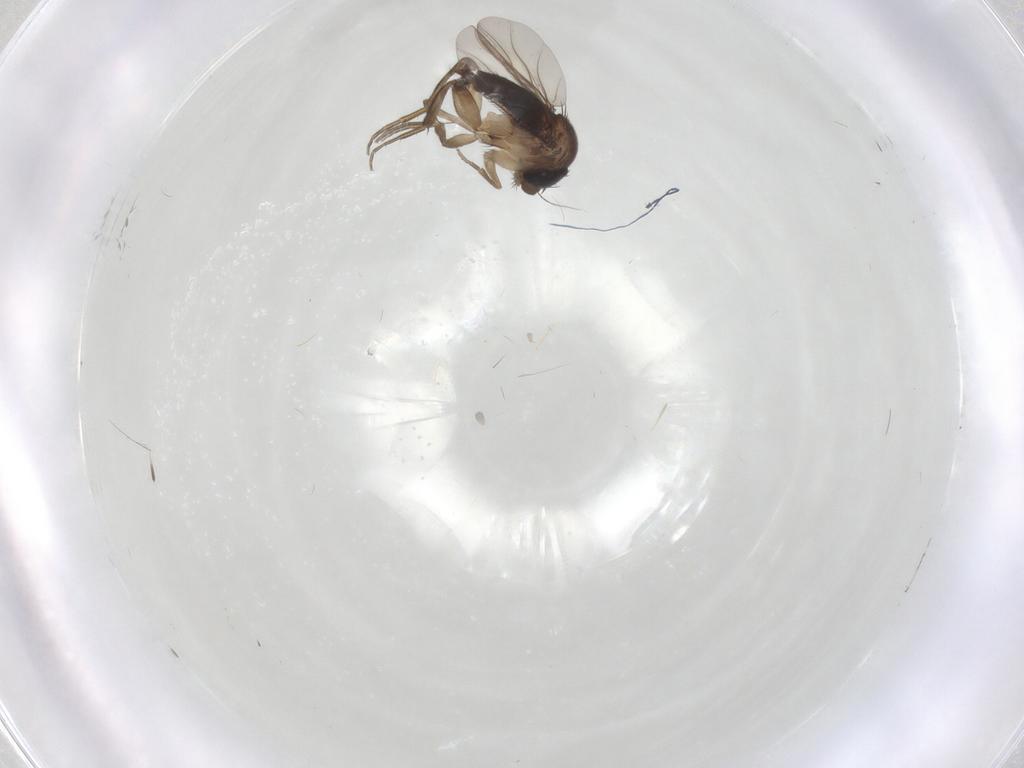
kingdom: Animalia
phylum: Arthropoda
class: Insecta
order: Diptera
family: Phoridae
